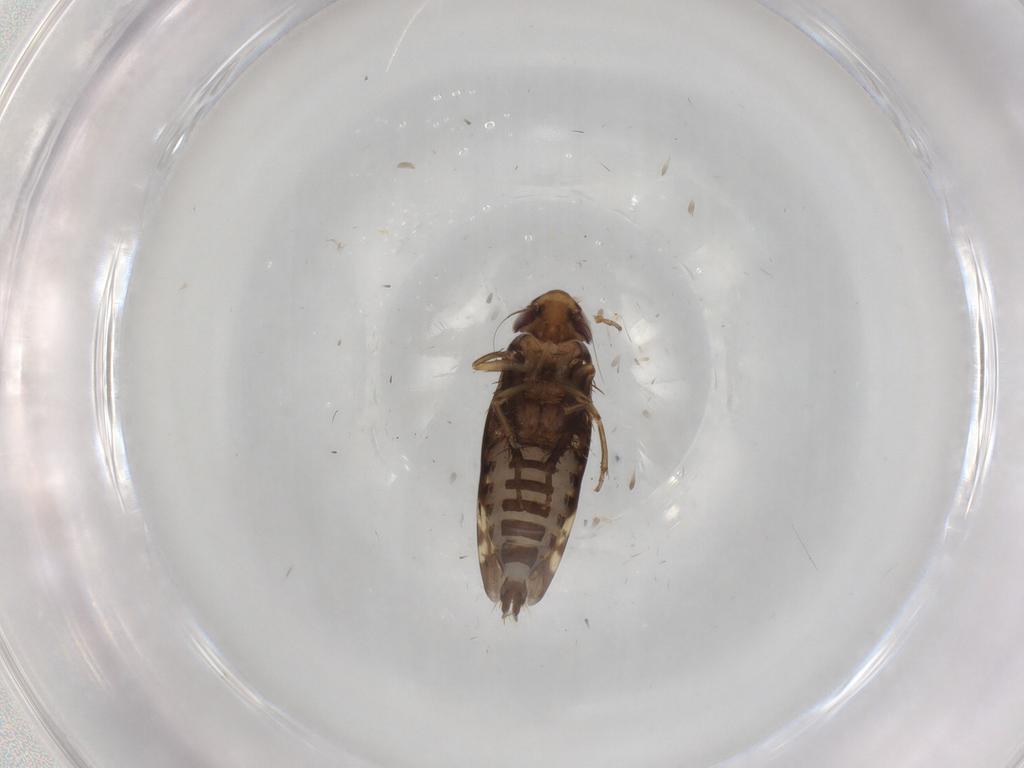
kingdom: Animalia
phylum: Arthropoda
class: Insecta
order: Hemiptera
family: Cicadellidae
